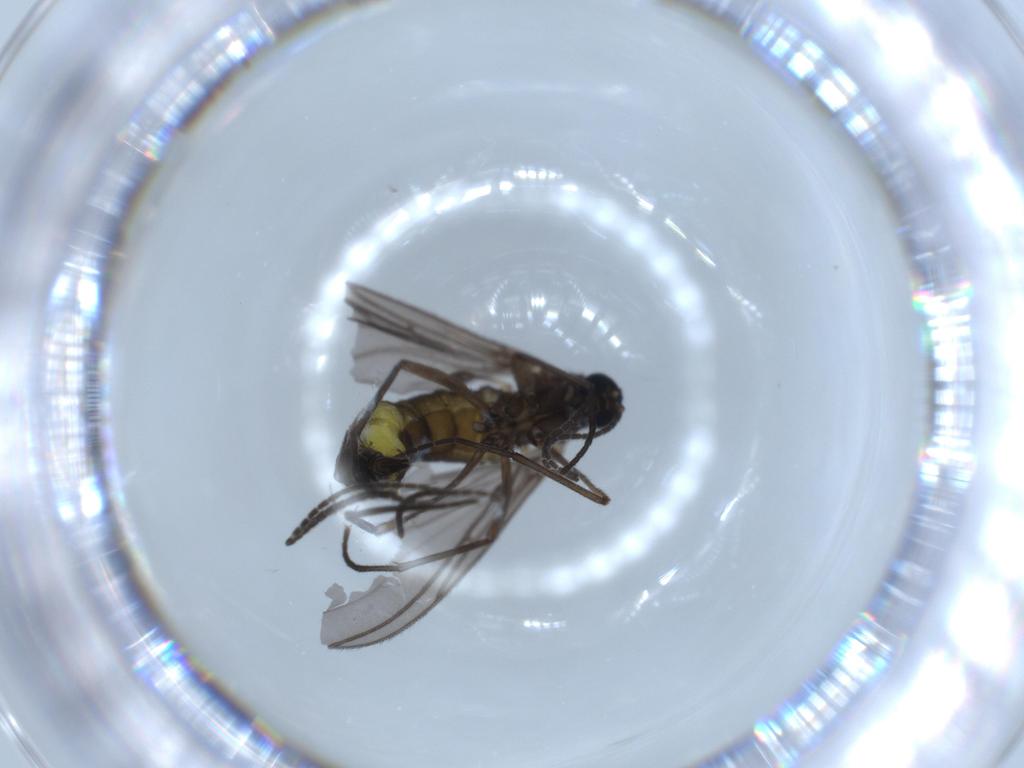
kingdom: Animalia
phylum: Arthropoda
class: Insecta
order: Diptera
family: Sciaridae
